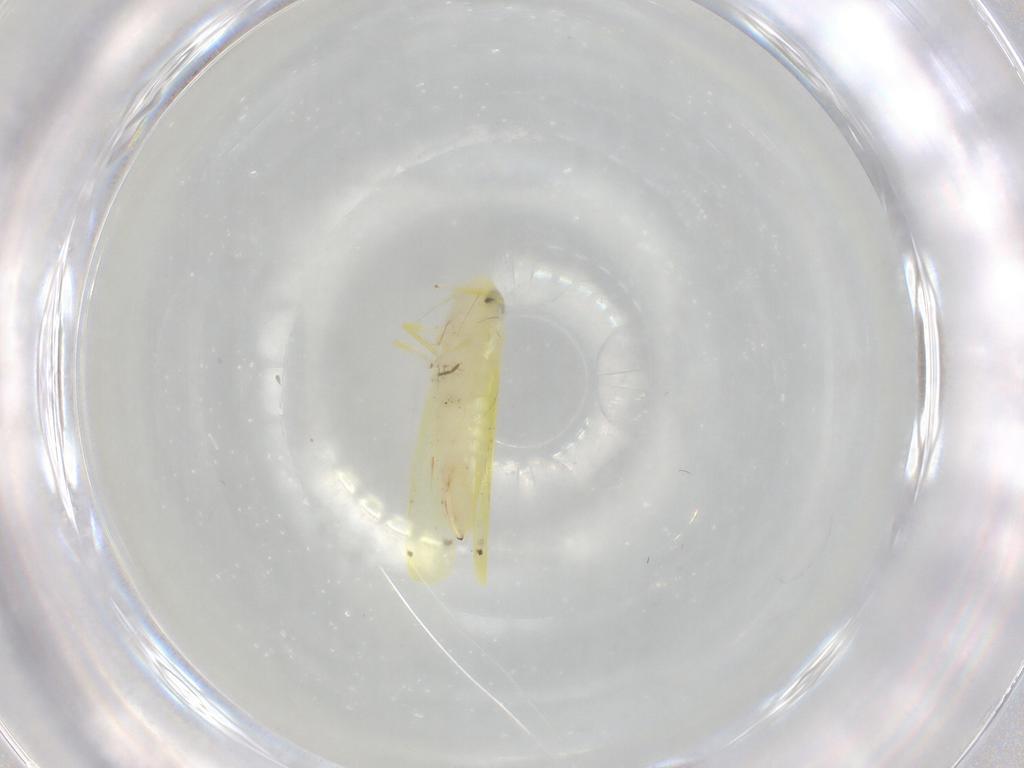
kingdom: Animalia
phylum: Arthropoda
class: Insecta
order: Hemiptera
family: Cicadellidae
